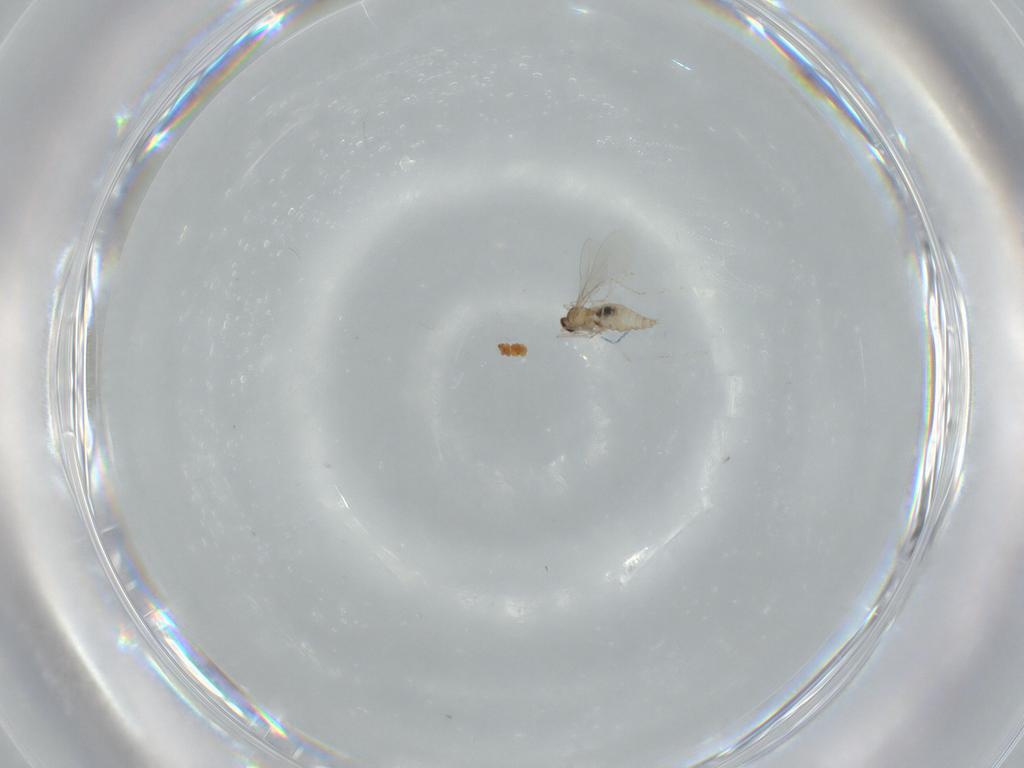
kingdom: Animalia
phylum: Arthropoda
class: Insecta
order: Diptera
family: Cecidomyiidae
